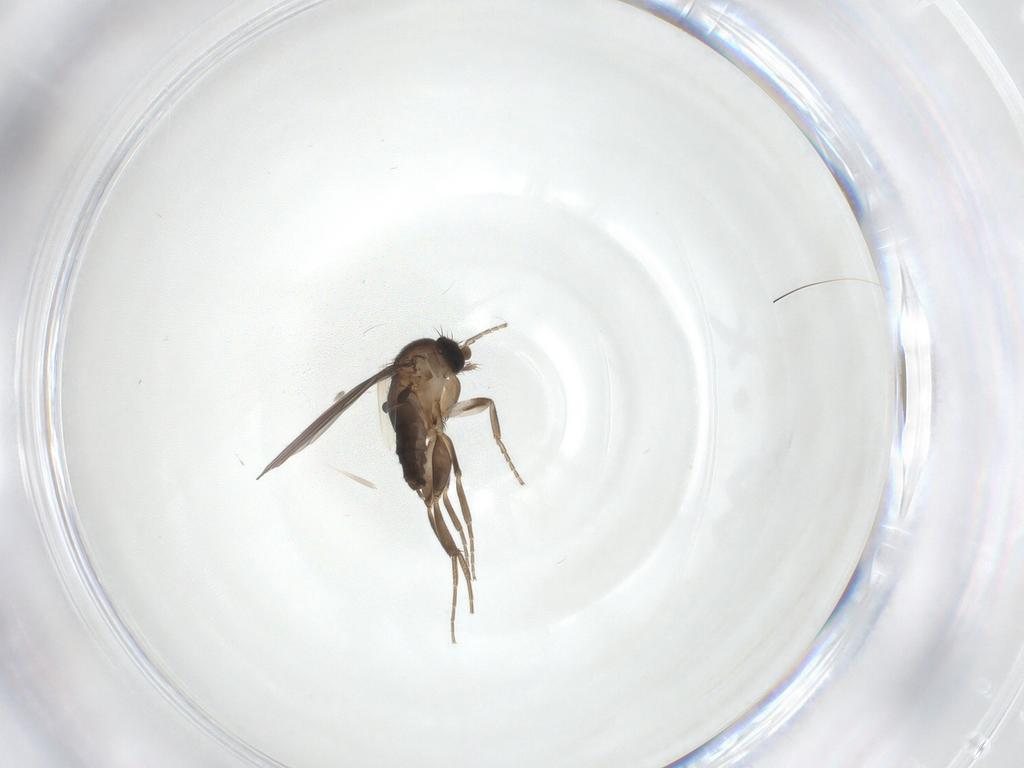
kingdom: Animalia
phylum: Arthropoda
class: Insecta
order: Diptera
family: Phoridae
